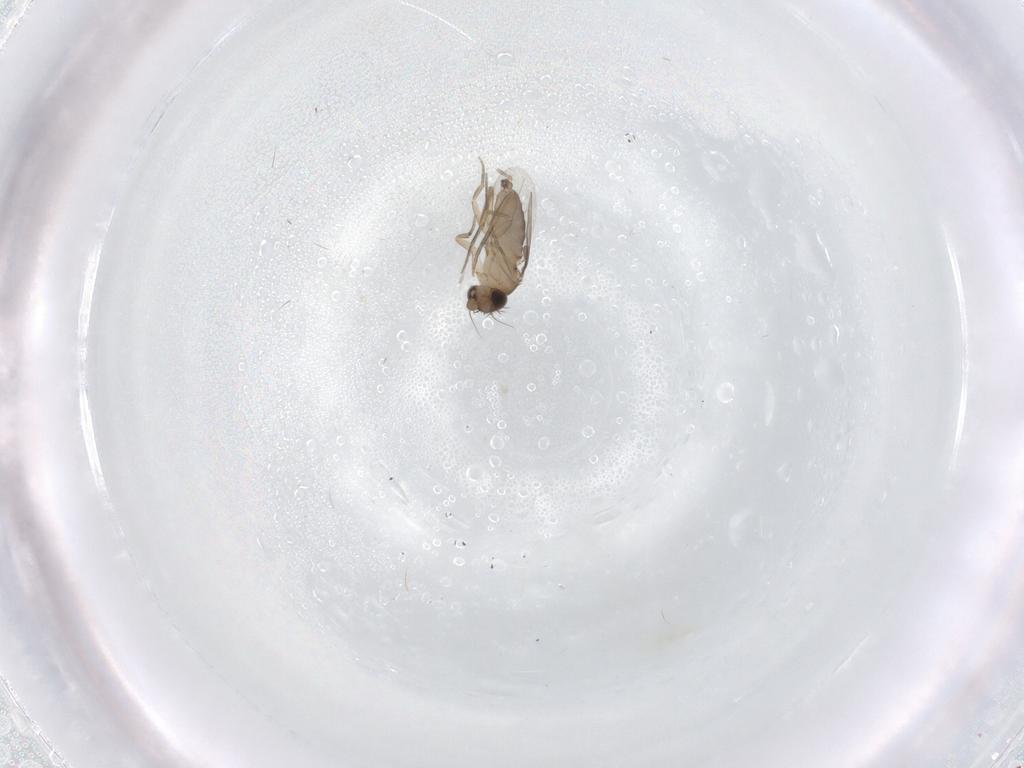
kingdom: Animalia
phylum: Arthropoda
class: Insecta
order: Diptera
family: Phoridae
